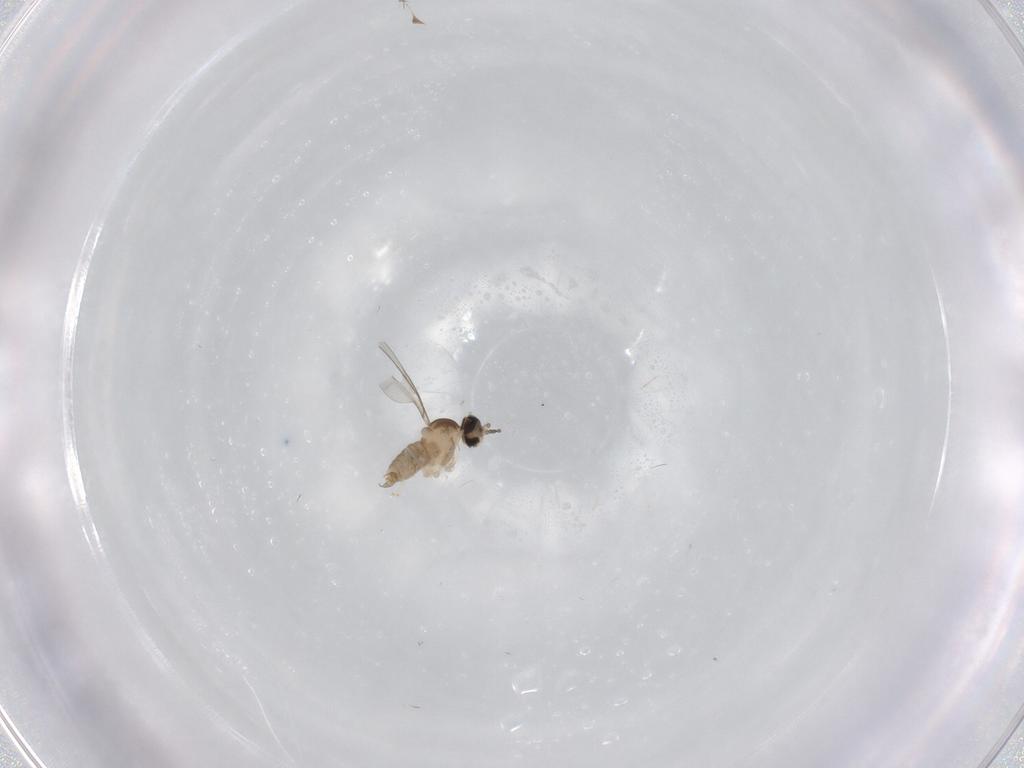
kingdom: Animalia
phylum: Arthropoda
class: Insecta
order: Diptera
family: Cecidomyiidae
